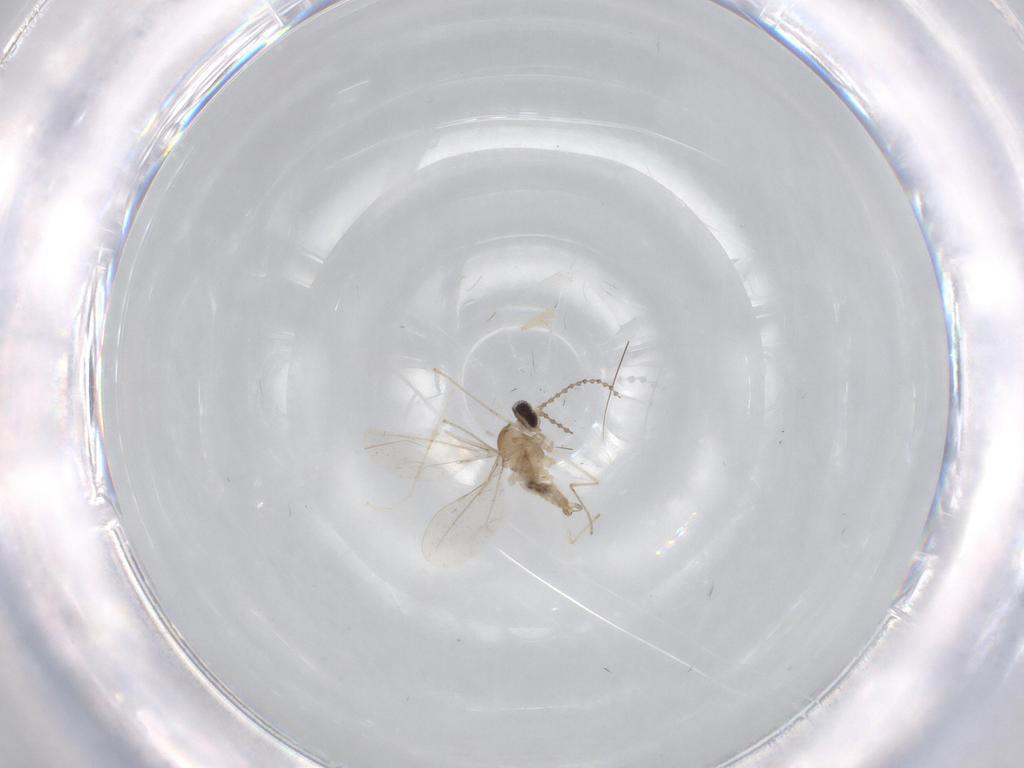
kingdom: Animalia
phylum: Arthropoda
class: Insecta
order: Diptera
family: Cecidomyiidae
